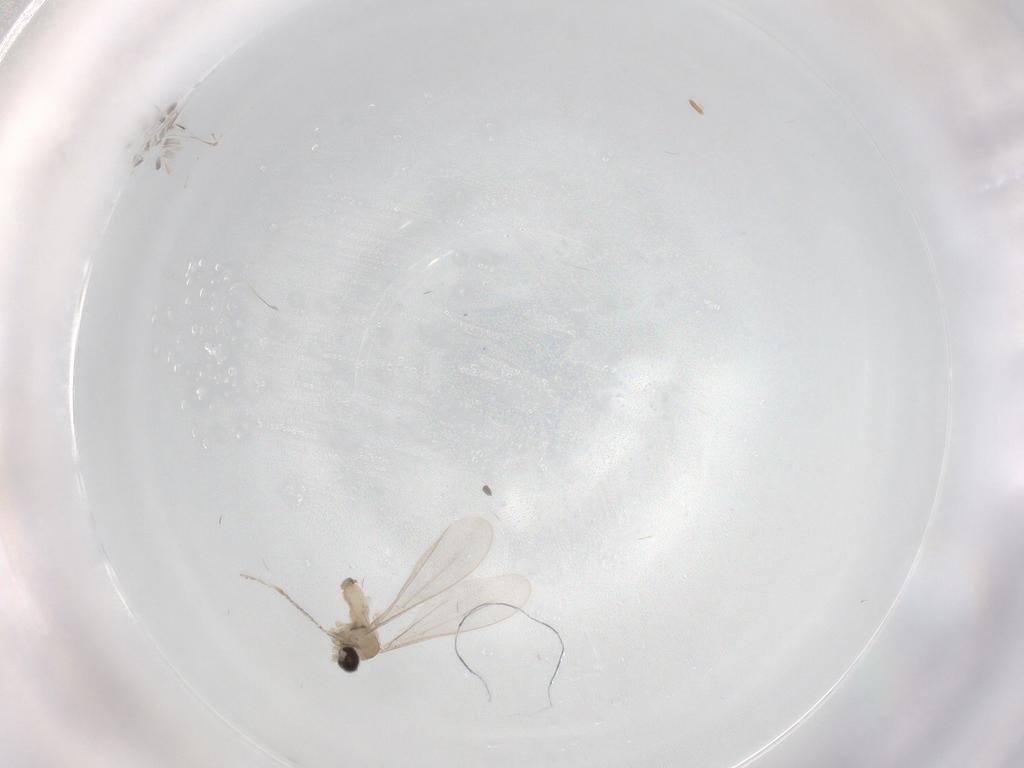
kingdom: Animalia
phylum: Arthropoda
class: Insecta
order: Diptera
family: Cecidomyiidae
